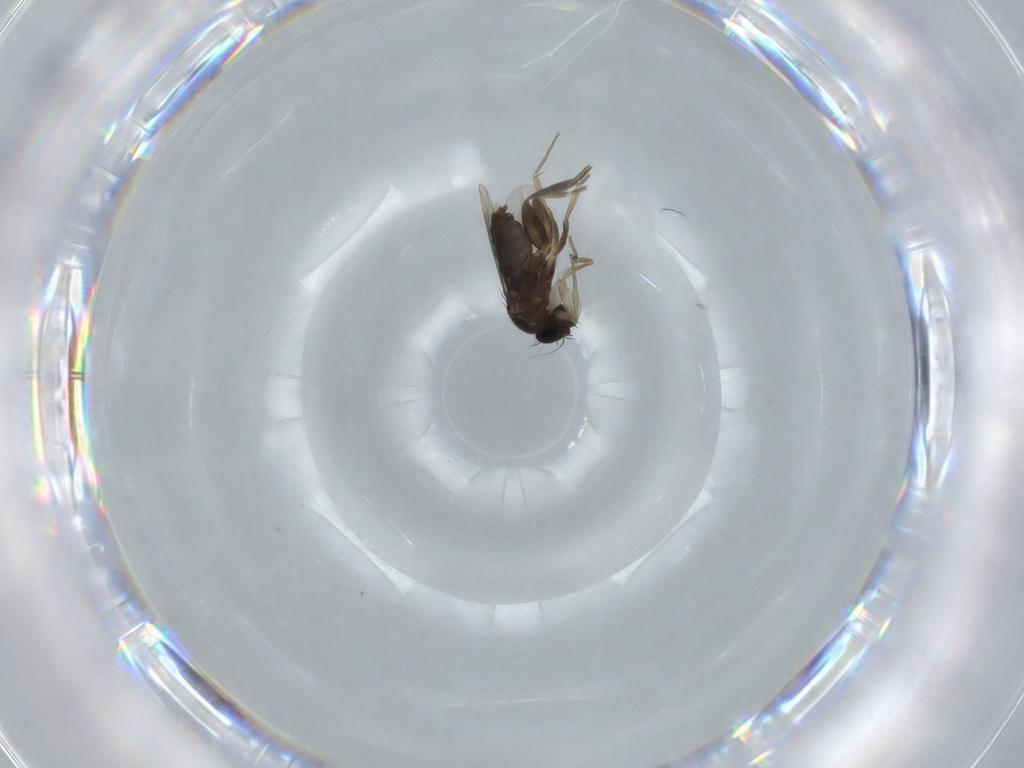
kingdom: Animalia
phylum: Arthropoda
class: Insecta
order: Diptera
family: Phoridae
